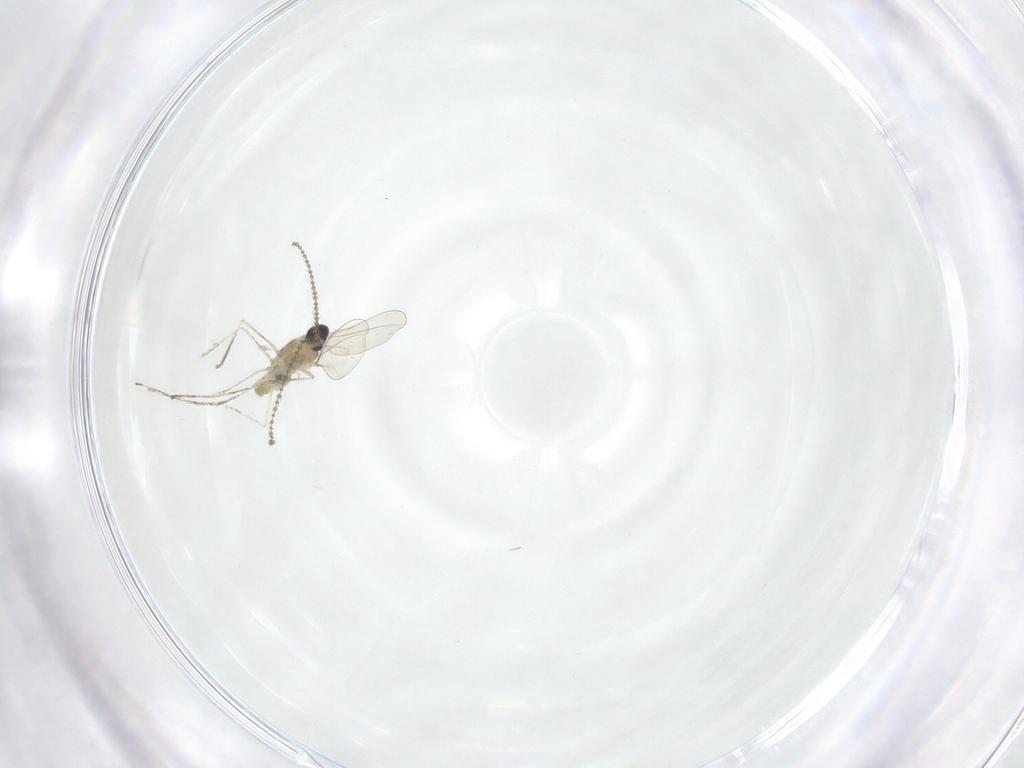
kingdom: Animalia
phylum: Arthropoda
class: Insecta
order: Diptera
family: Cecidomyiidae
